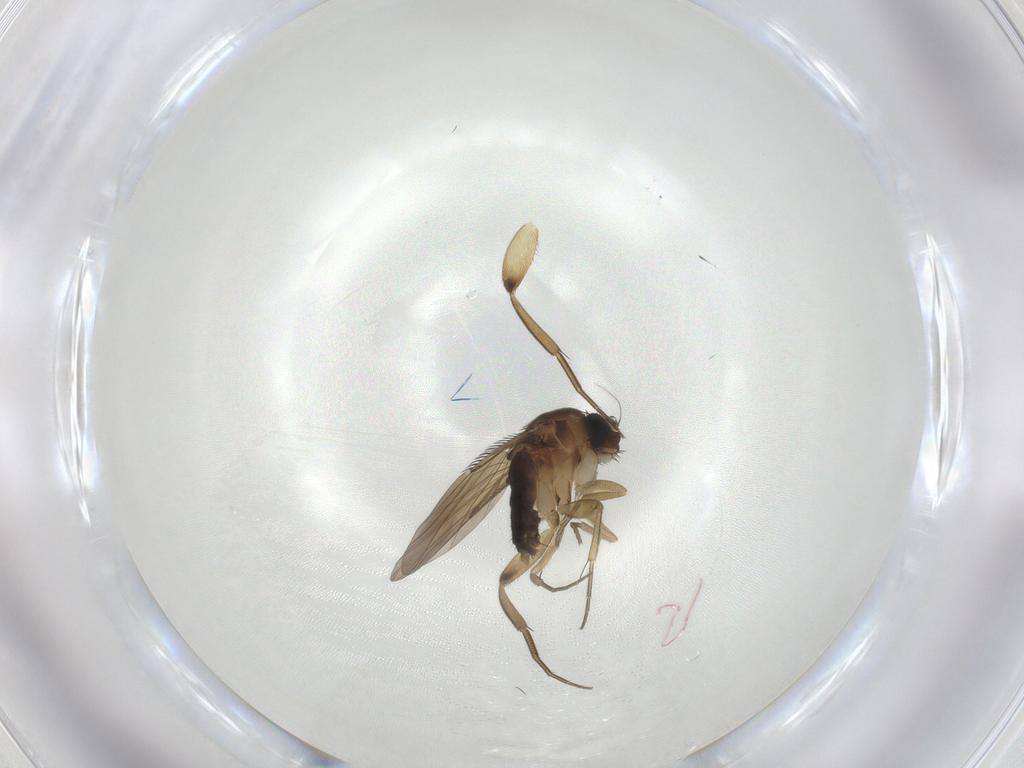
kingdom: Animalia
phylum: Arthropoda
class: Insecta
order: Diptera
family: Phoridae
